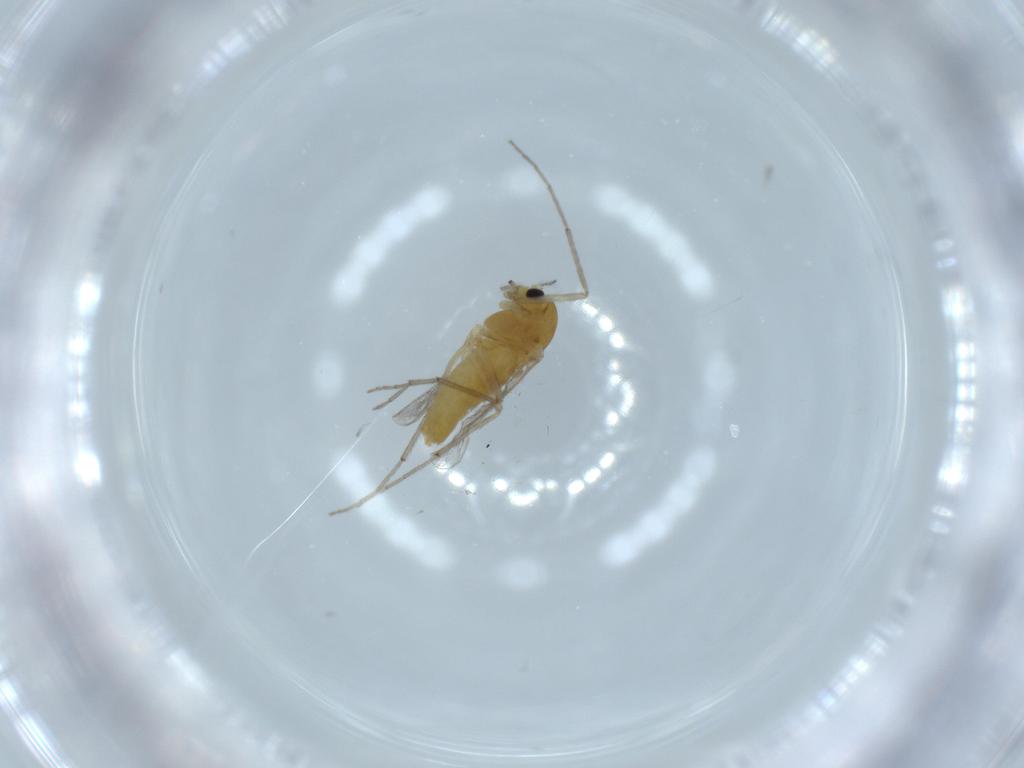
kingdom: Animalia
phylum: Arthropoda
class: Insecta
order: Diptera
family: Chironomidae
